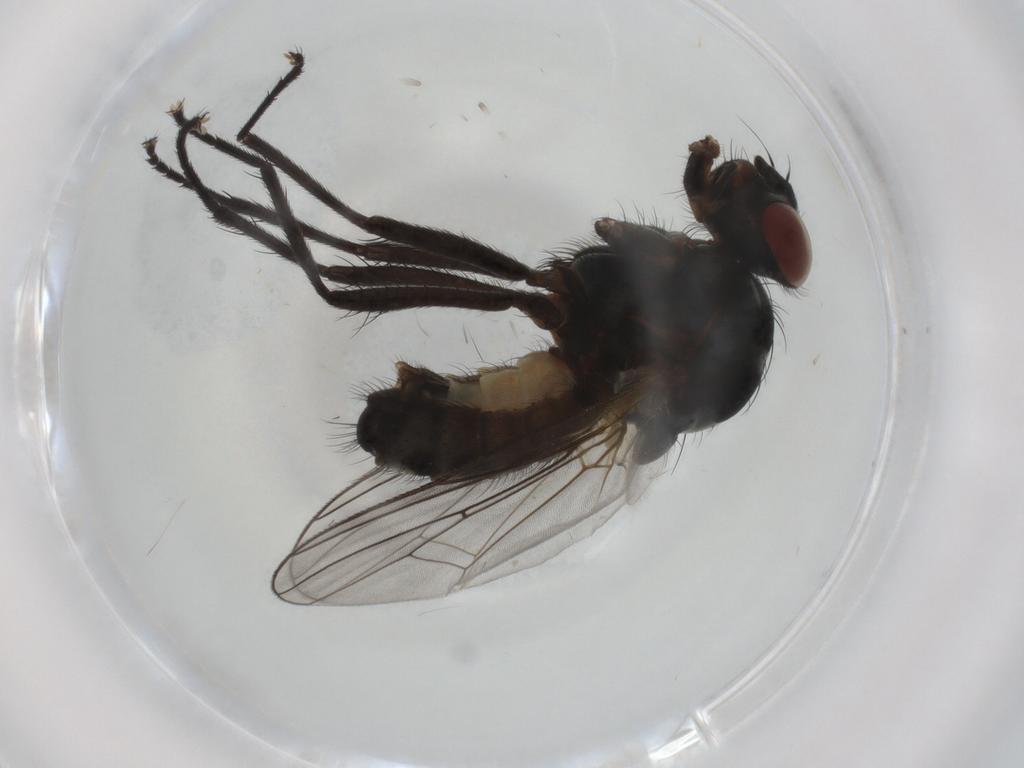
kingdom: Animalia
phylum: Arthropoda
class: Insecta
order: Diptera
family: Anthomyiidae
